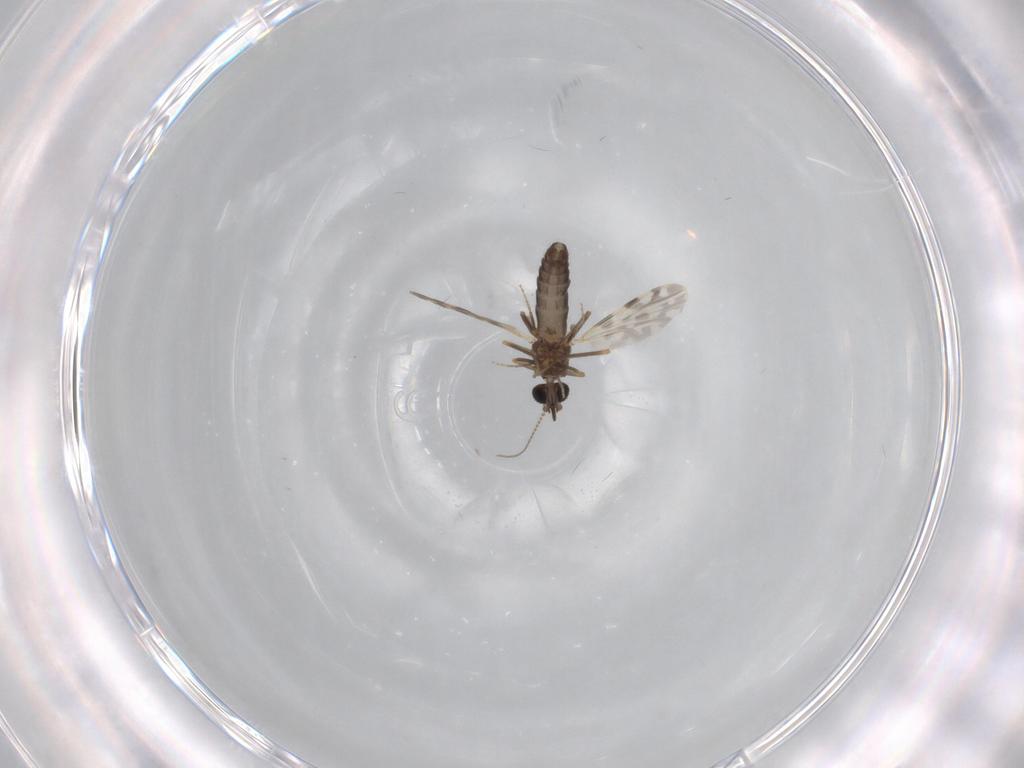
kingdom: Animalia
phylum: Arthropoda
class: Insecta
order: Diptera
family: Ceratopogonidae
